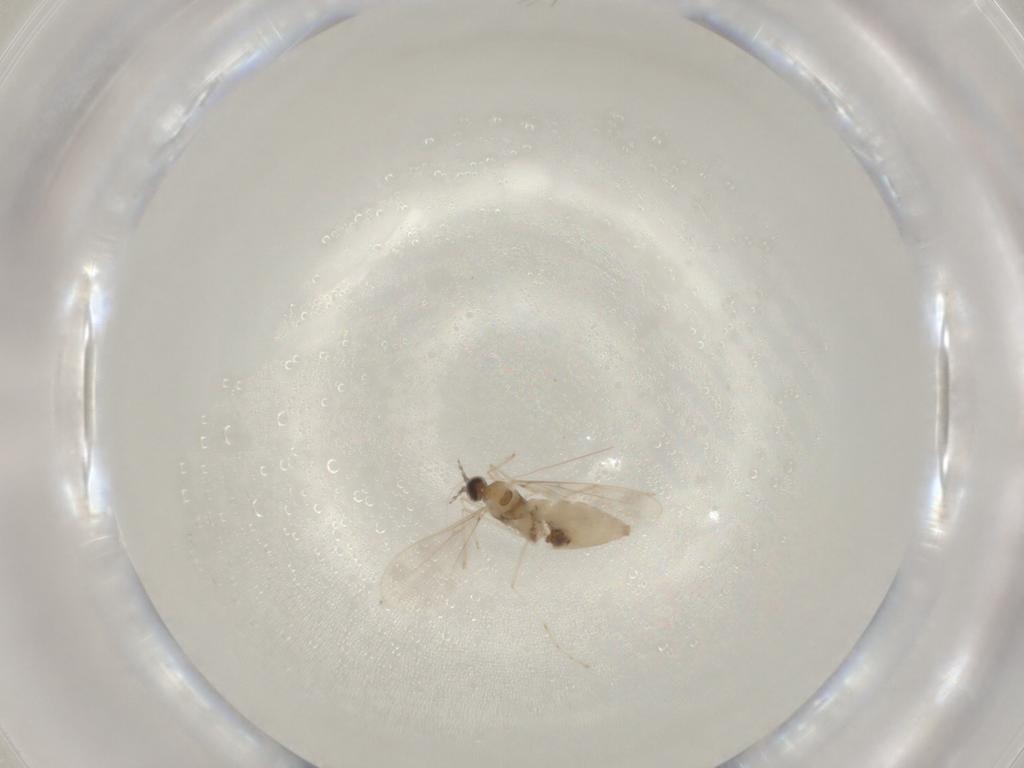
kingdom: Animalia
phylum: Arthropoda
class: Insecta
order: Diptera
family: Cecidomyiidae
